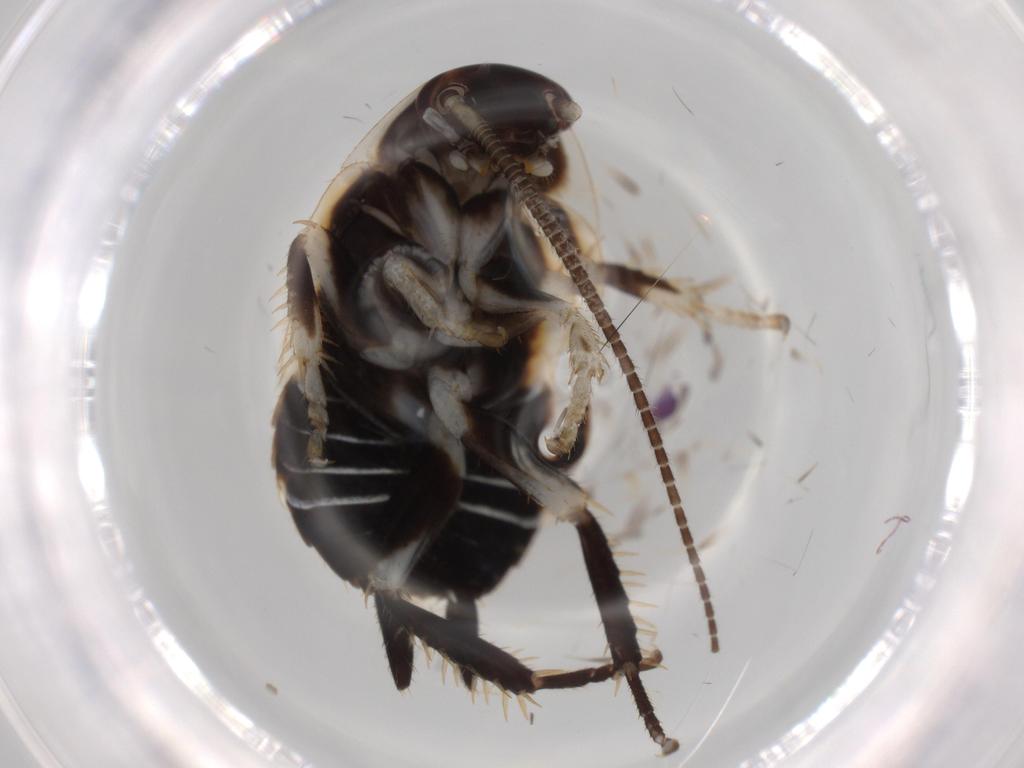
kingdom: Animalia
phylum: Arthropoda
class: Insecta
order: Blattodea
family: Ectobiidae
